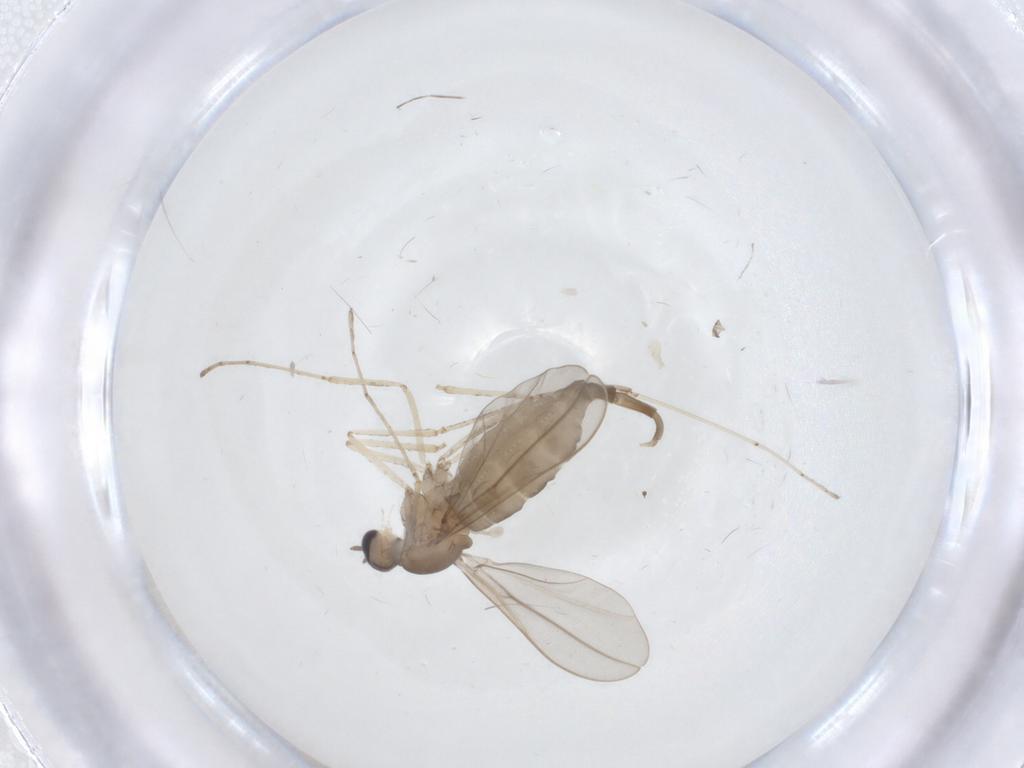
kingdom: Animalia
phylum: Arthropoda
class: Insecta
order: Diptera
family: Cecidomyiidae
